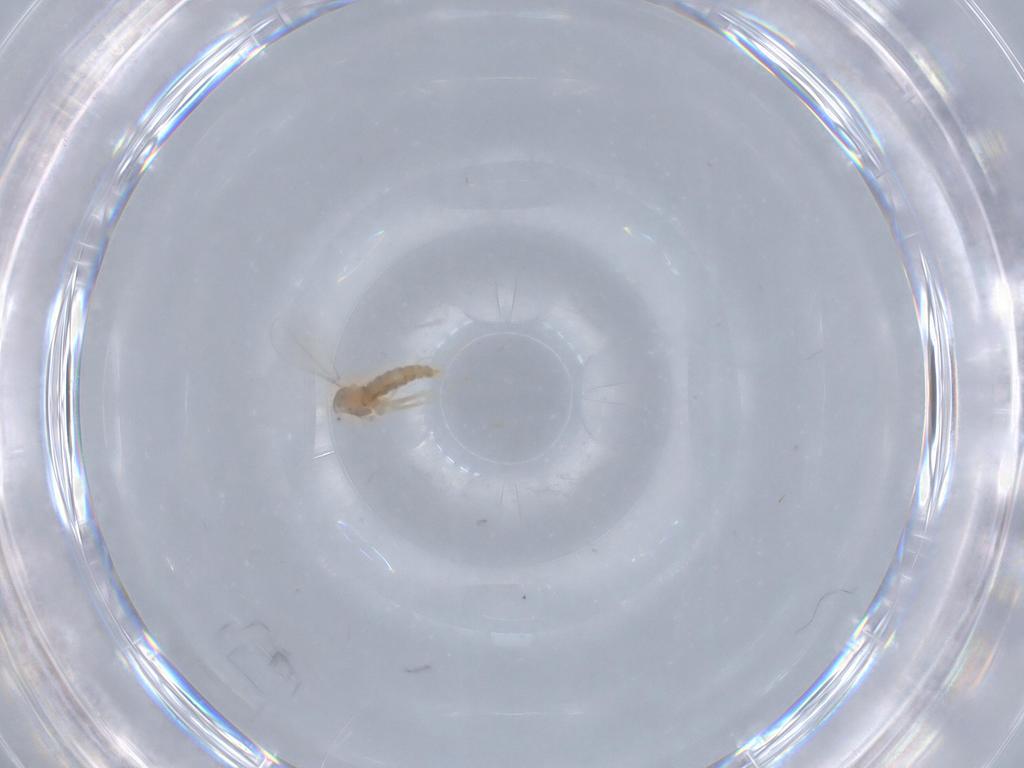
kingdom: Animalia
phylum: Arthropoda
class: Insecta
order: Diptera
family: Cecidomyiidae
